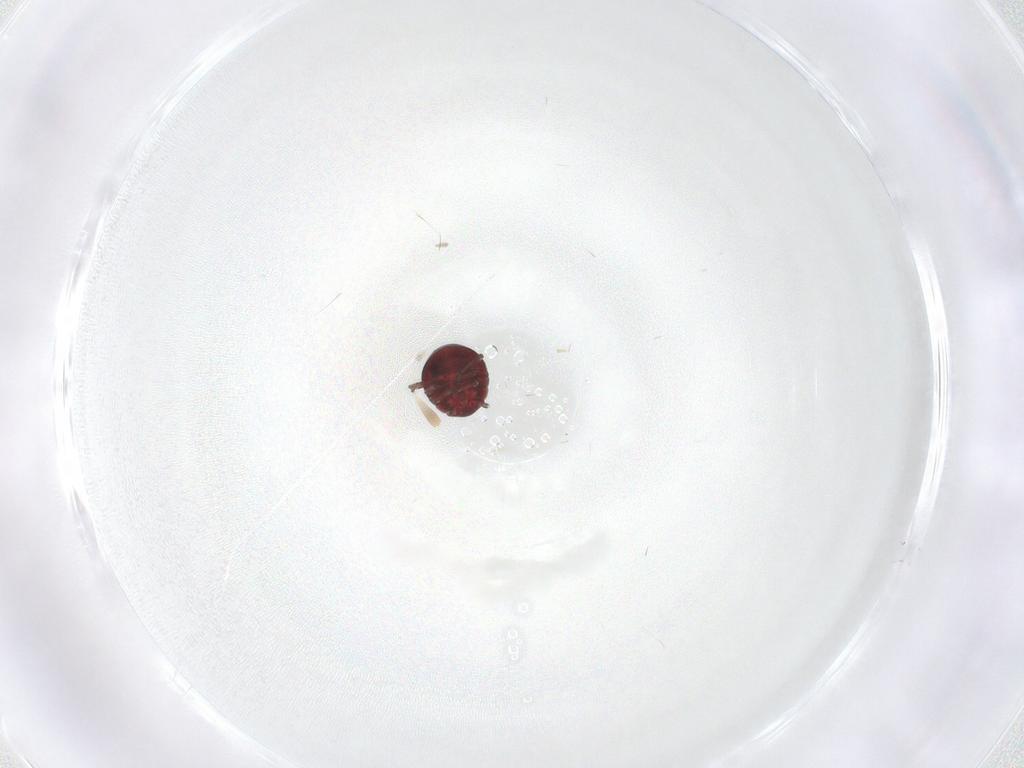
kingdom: Animalia
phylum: Arthropoda
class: Insecta
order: Hemiptera
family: Schizopteridae
